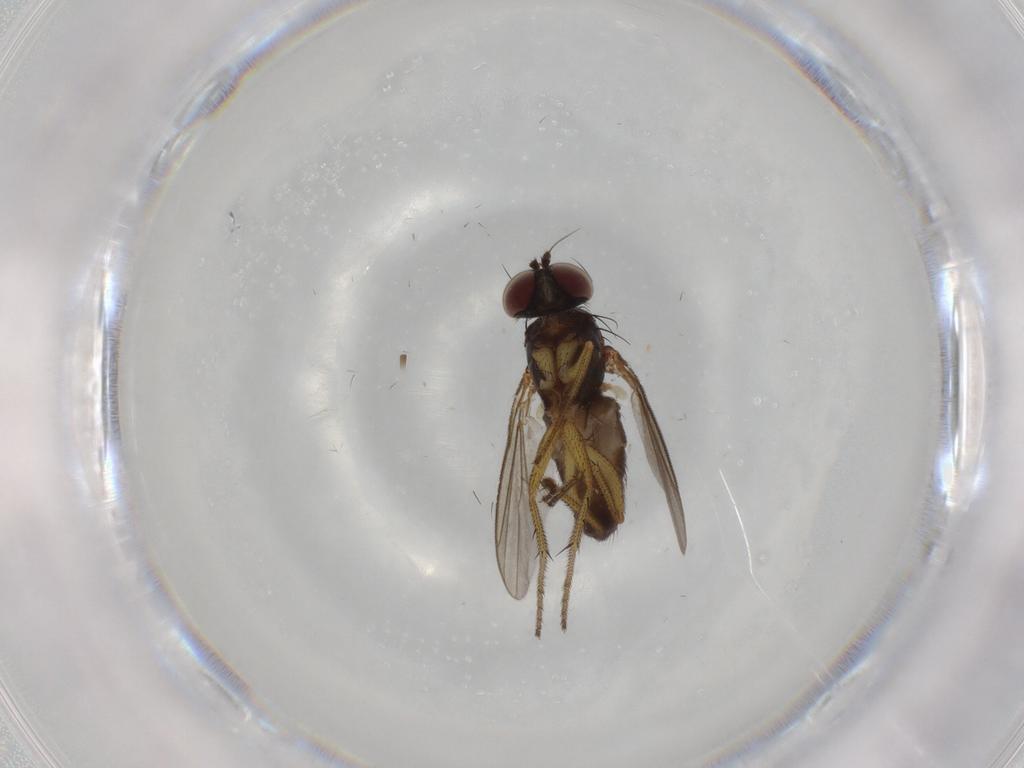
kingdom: Animalia
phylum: Arthropoda
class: Insecta
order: Diptera
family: Dolichopodidae
